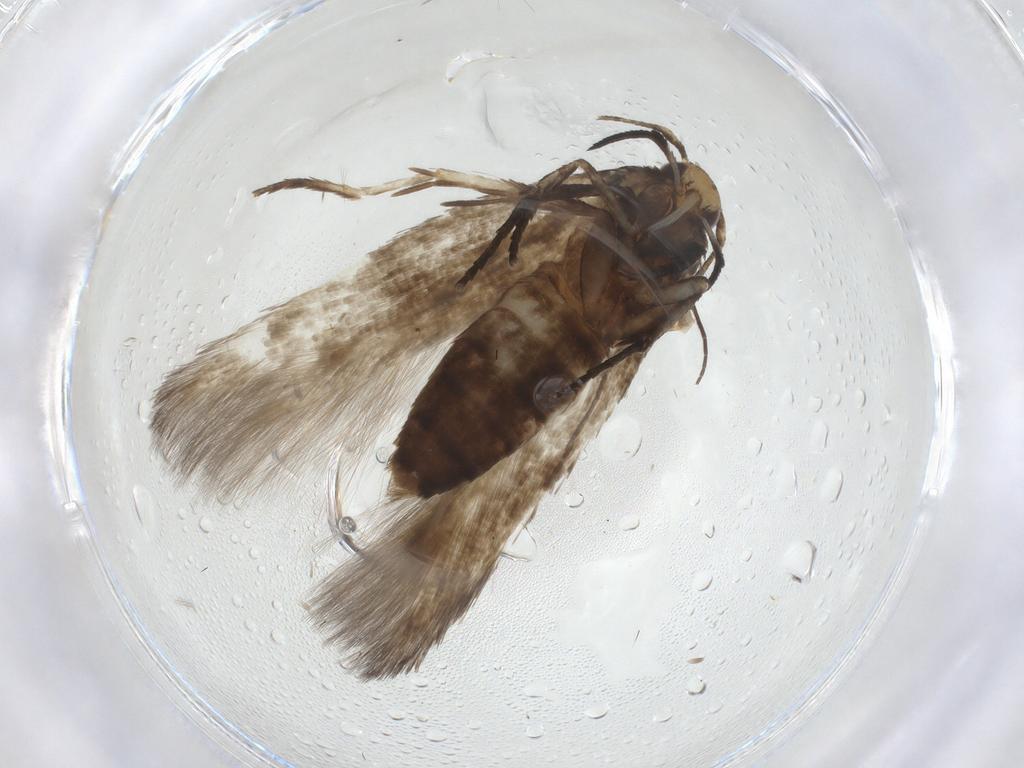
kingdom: Animalia
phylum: Arthropoda
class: Insecta
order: Lepidoptera
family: Cosmopterigidae
